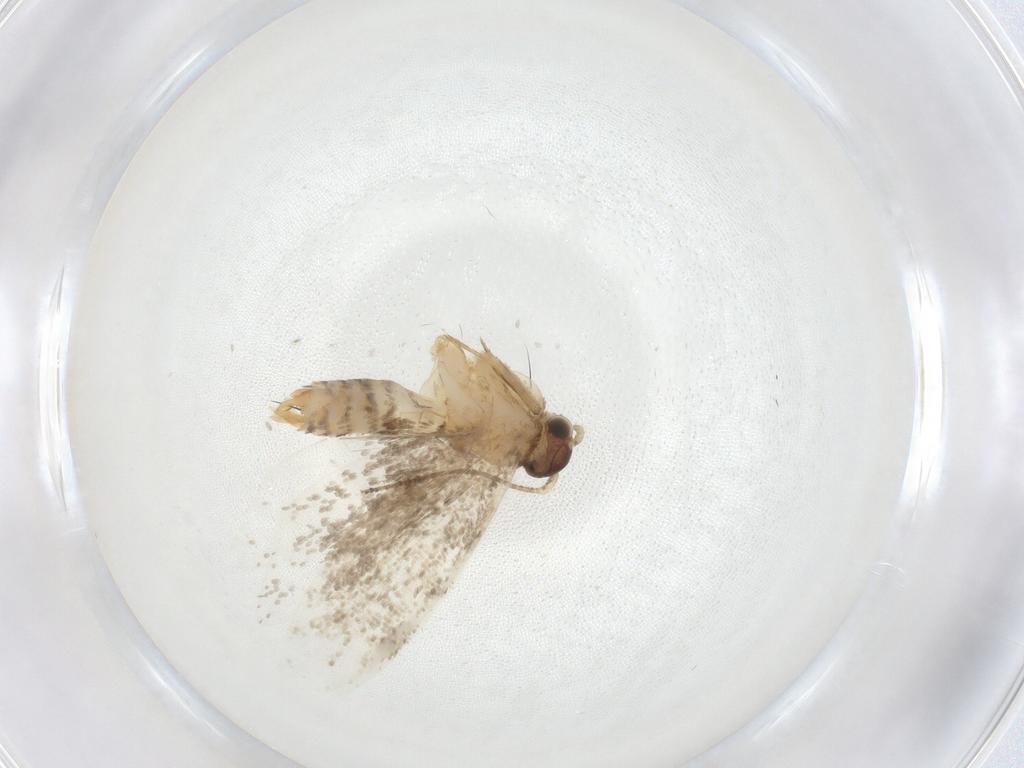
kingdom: Animalia
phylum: Arthropoda
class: Insecta
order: Lepidoptera
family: Dryadaulidae
